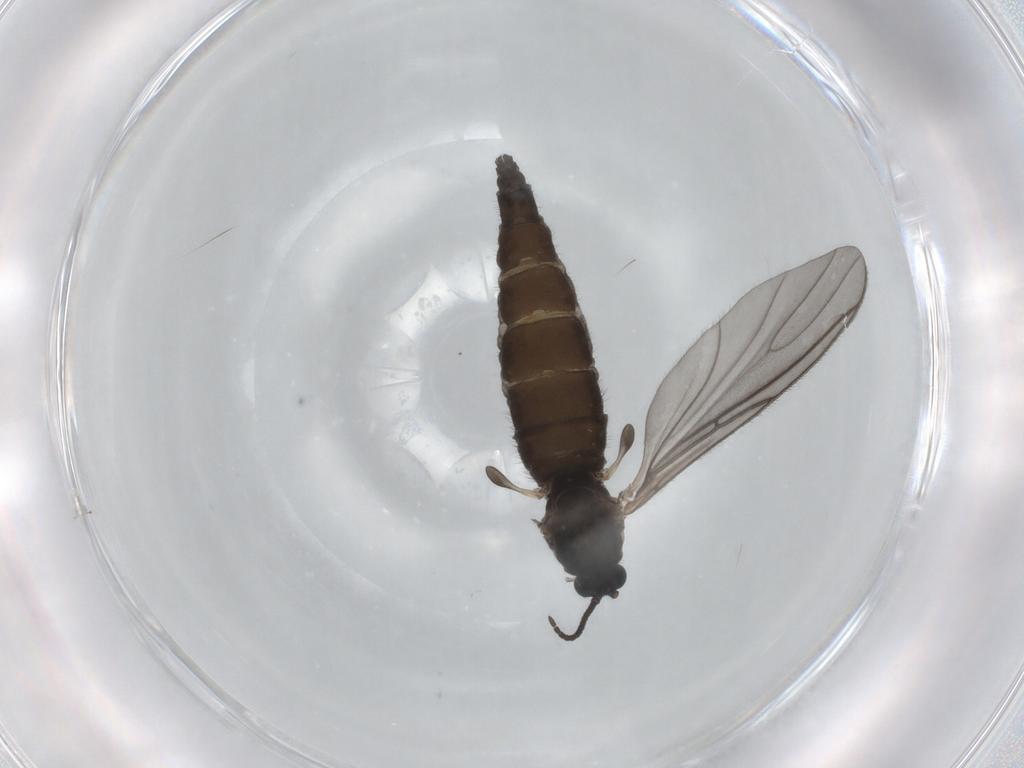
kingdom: Animalia
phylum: Arthropoda
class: Insecta
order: Diptera
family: Sciaridae
